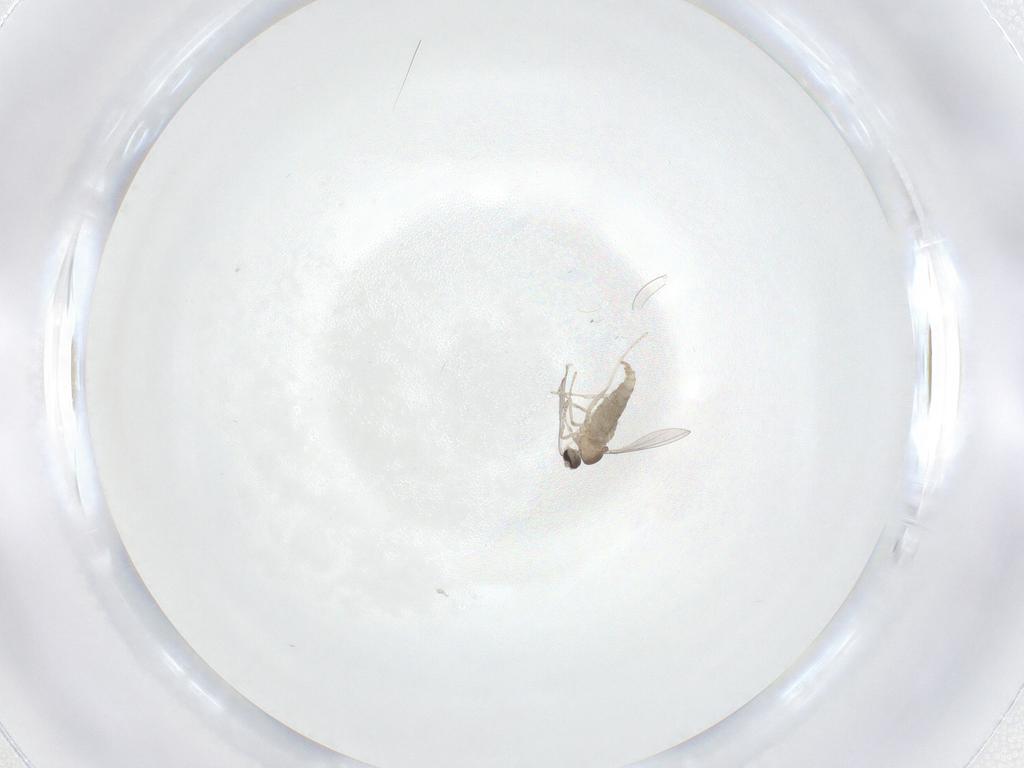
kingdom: Animalia
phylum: Arthropoda
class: Insecta
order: Diptera
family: Cecidomyiidae
